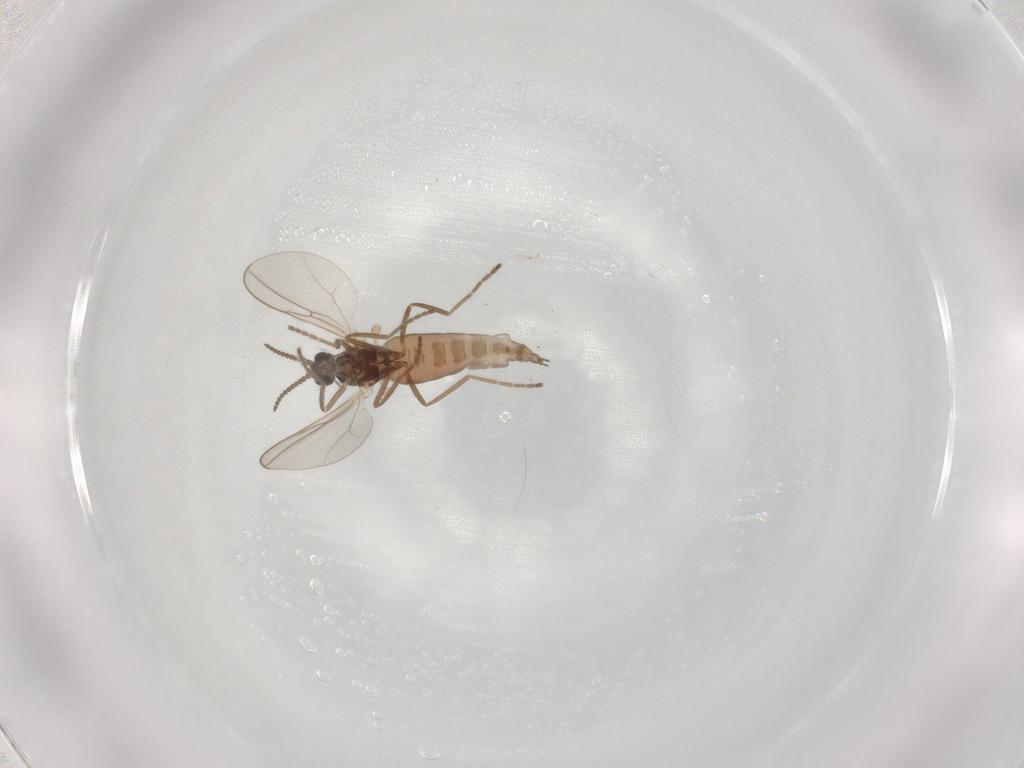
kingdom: Animalia
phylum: Arthropoda
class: Insecta
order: Diptera
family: Cecidomyiidae
